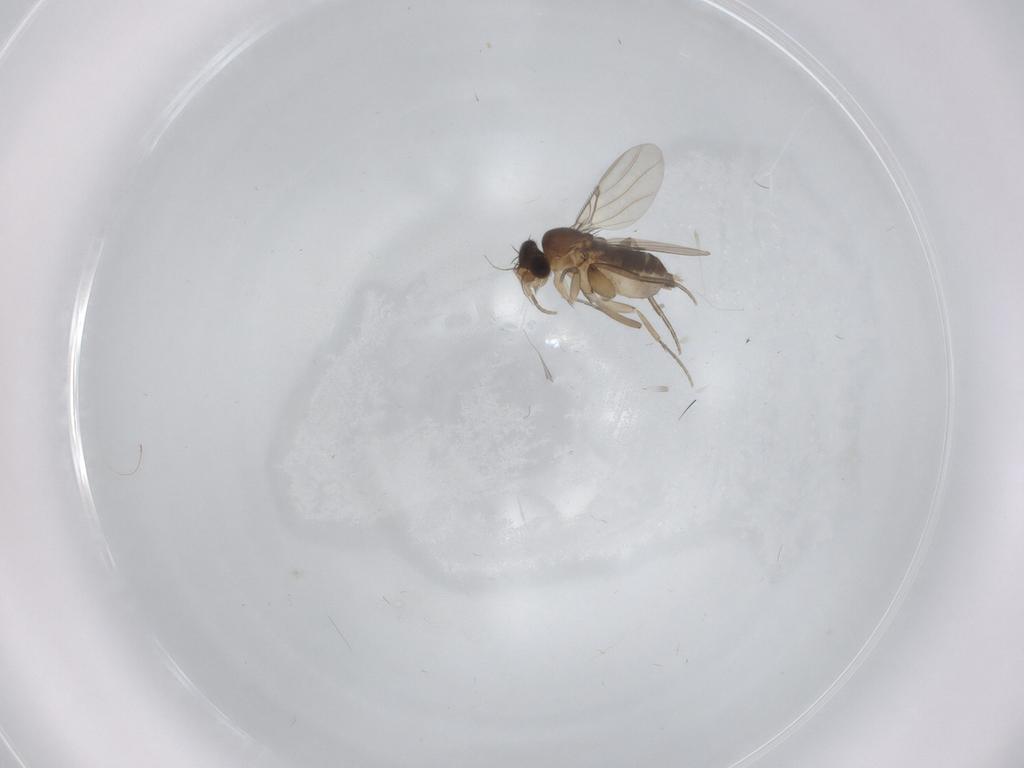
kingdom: Animalia
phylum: Arthropoda
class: Insecta
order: Diptera
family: Phoridae
